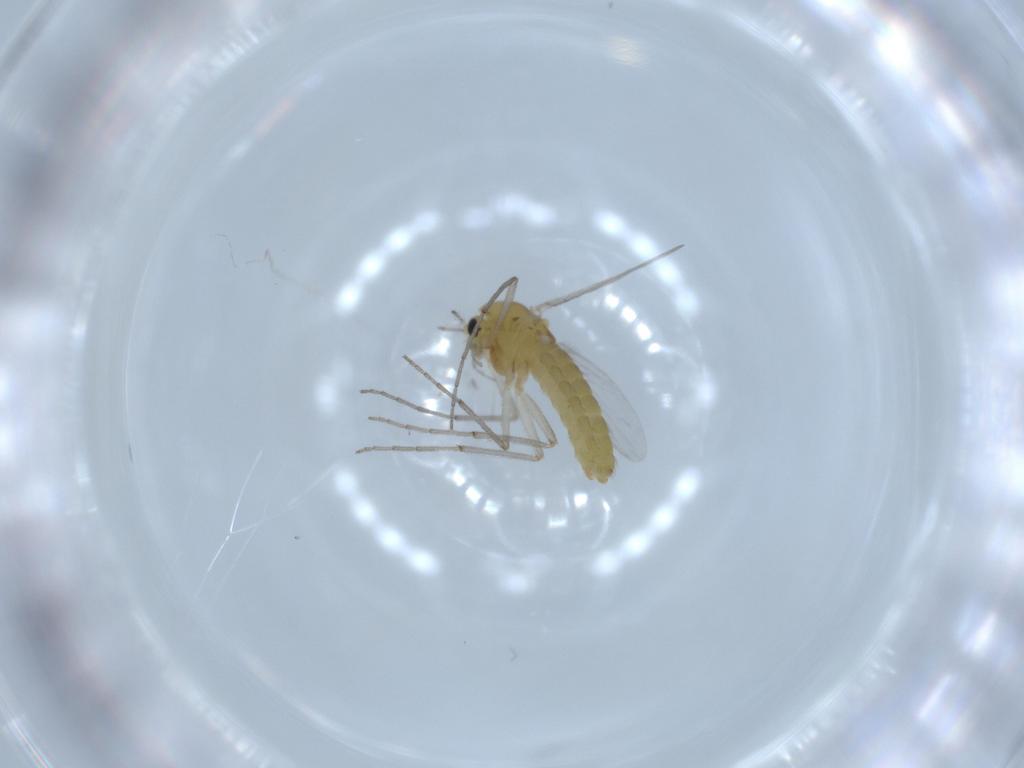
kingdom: Animalia
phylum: Arthropoda
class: Insecta
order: Diptera
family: Chironomidae
